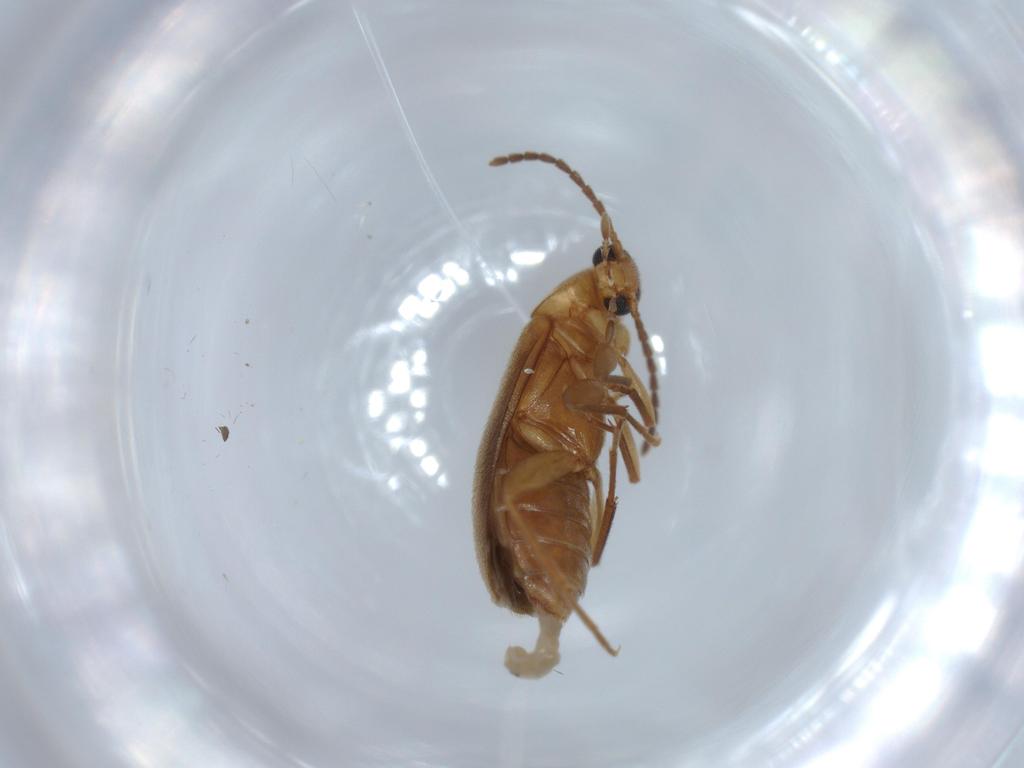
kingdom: Animalia
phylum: Arthropoda
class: Insecta
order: Coleoptera
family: Scraptiidae
